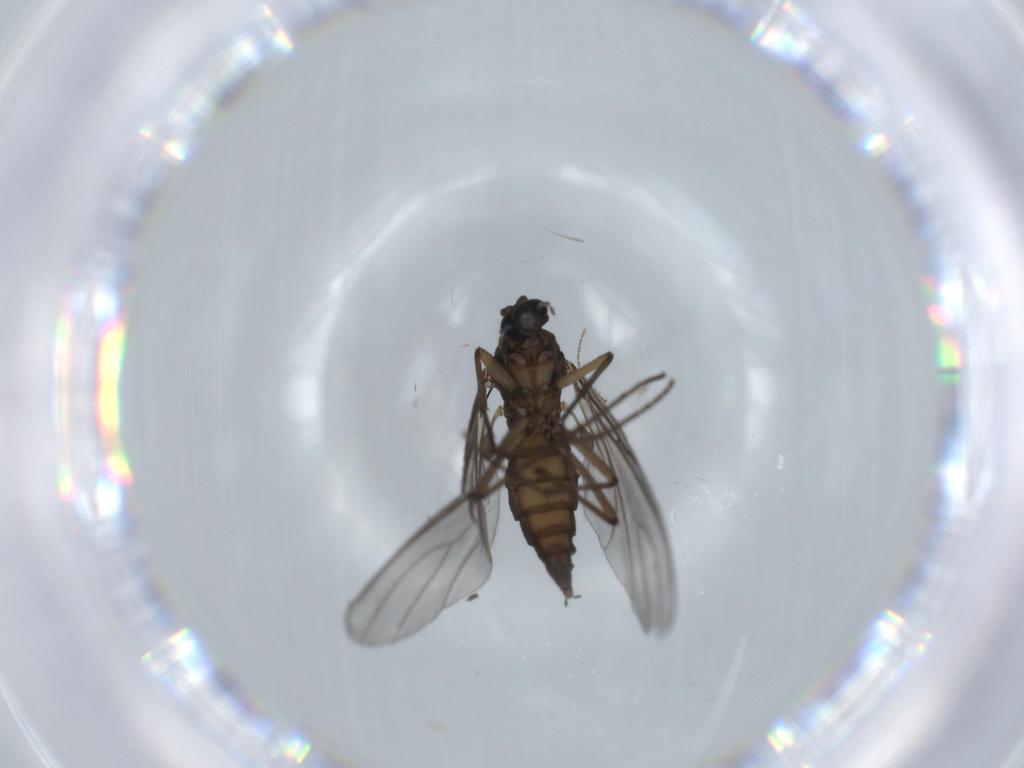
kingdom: Animalia
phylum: Arthropoda
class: Insecta
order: Diptera
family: Sciaridae
